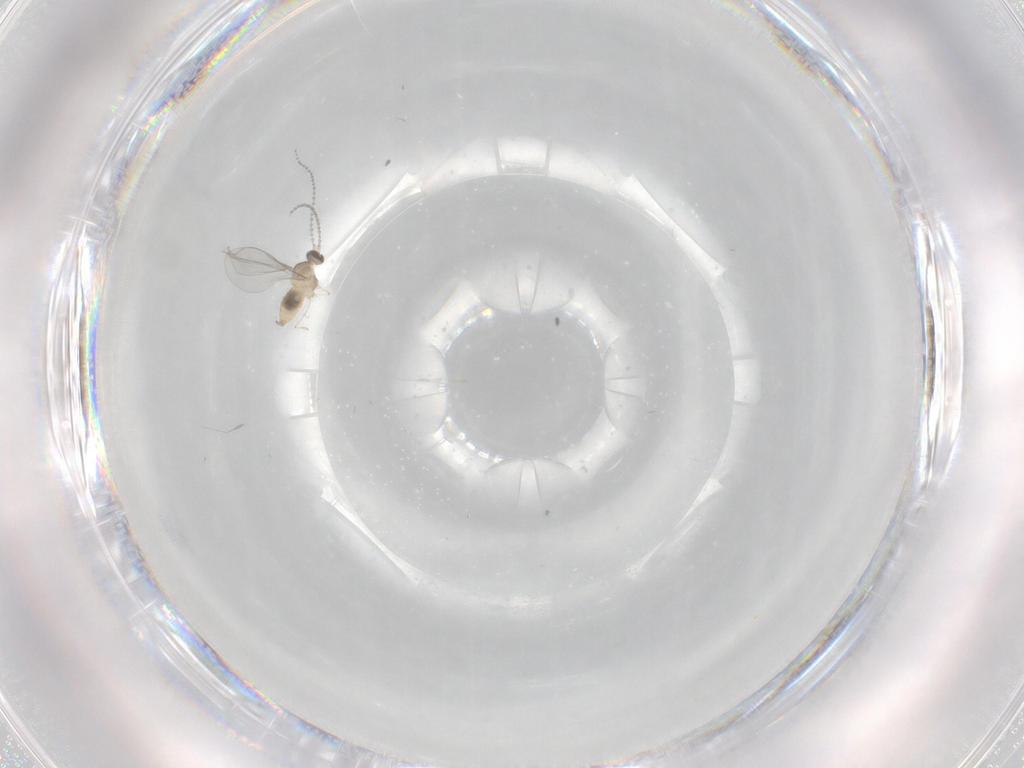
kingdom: Animalia
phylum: Arthropoda
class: Insecta
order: Diptera
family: Cecidomyiidae
